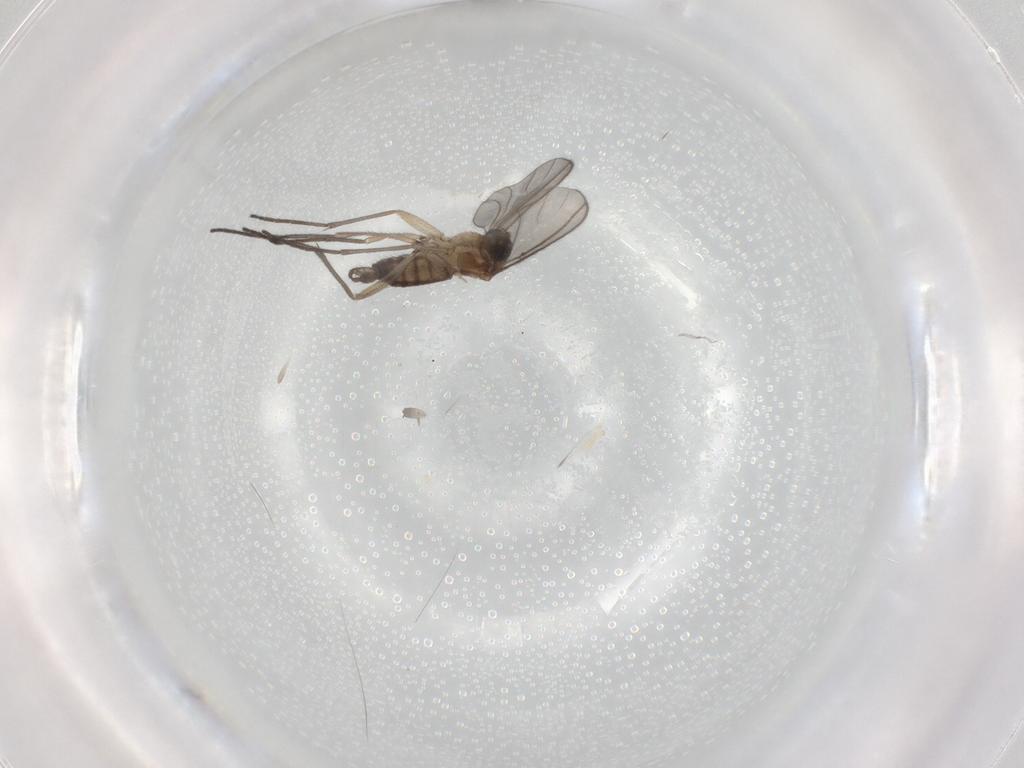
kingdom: Animalia
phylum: Arthropoda
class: Insecta
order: Diptera
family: Sciaridae
